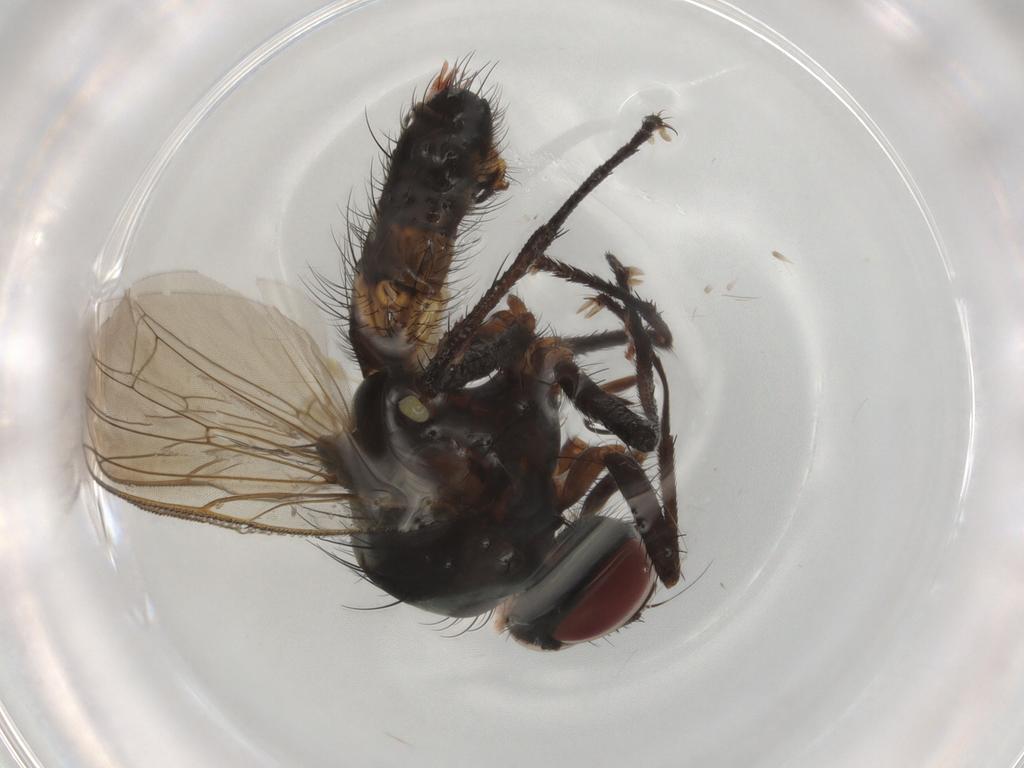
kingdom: Animalia
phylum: Arthropoda
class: Insecta
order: Diptera
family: Anthomyiidae
